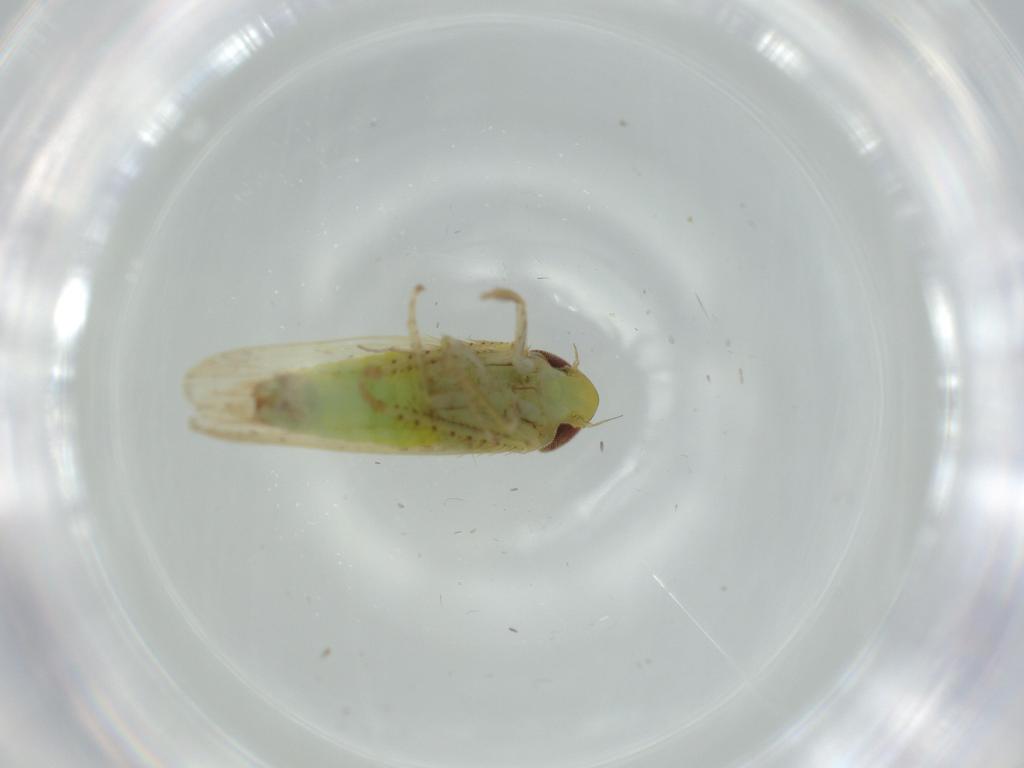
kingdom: Animalia
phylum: Arthropoda
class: Insecta
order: Hemiptera
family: Cicadellidae
